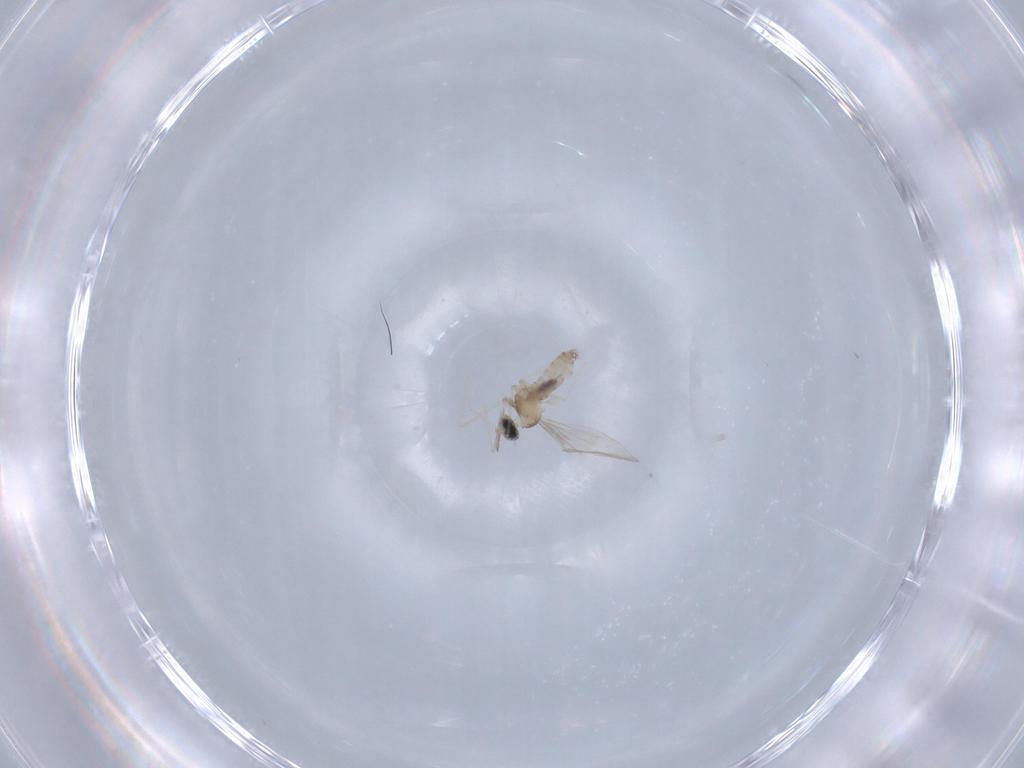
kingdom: Animalia
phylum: Arthropoda
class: Insecta
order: Diptera
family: Cecidomyiidae
